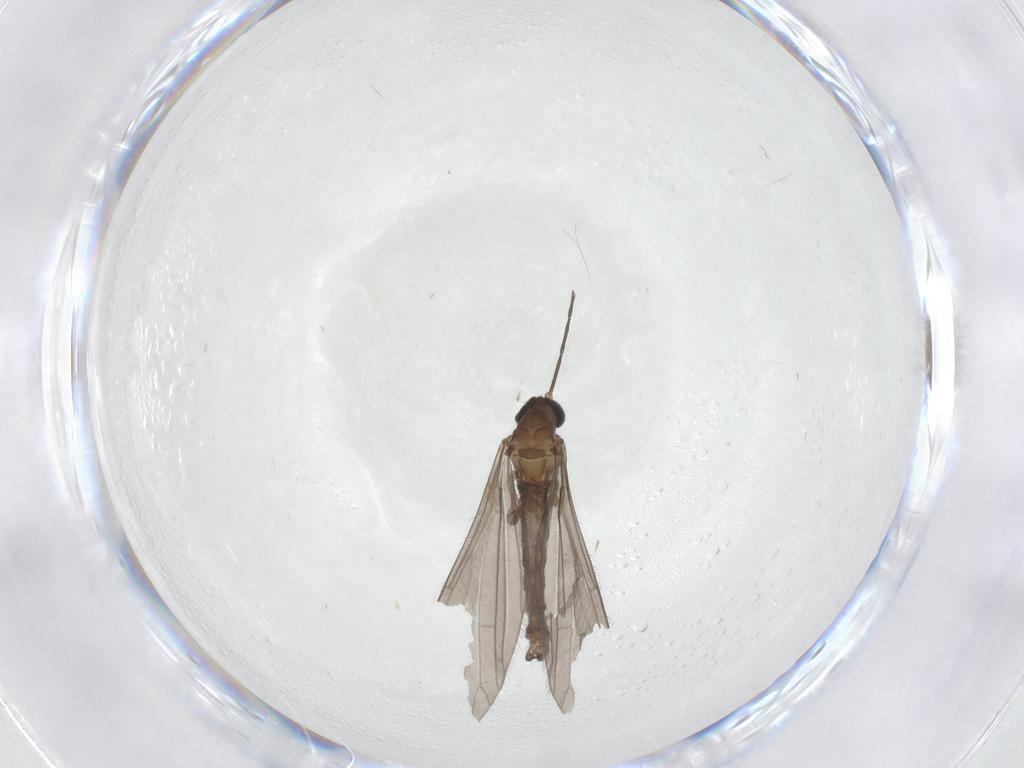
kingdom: Animalia
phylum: Arthropoda
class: Insecta
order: Diptera
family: Limoniidae
